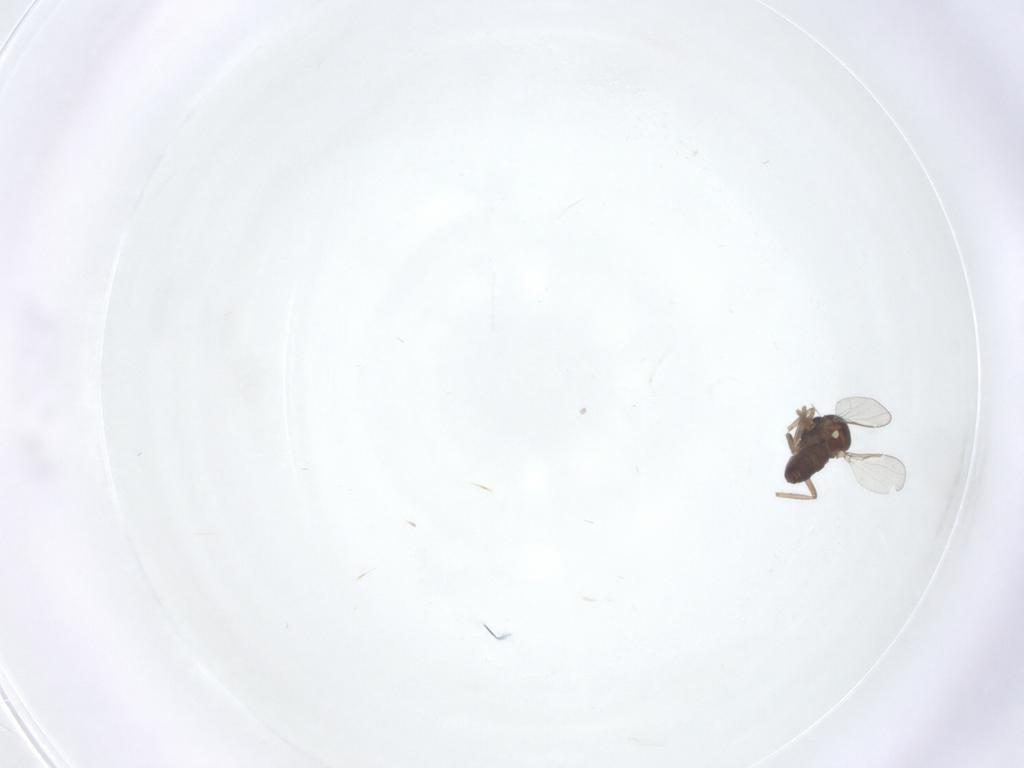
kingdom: Animalia
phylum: Arthropoda
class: Insecta
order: Diptera
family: Ceratopogonidae
